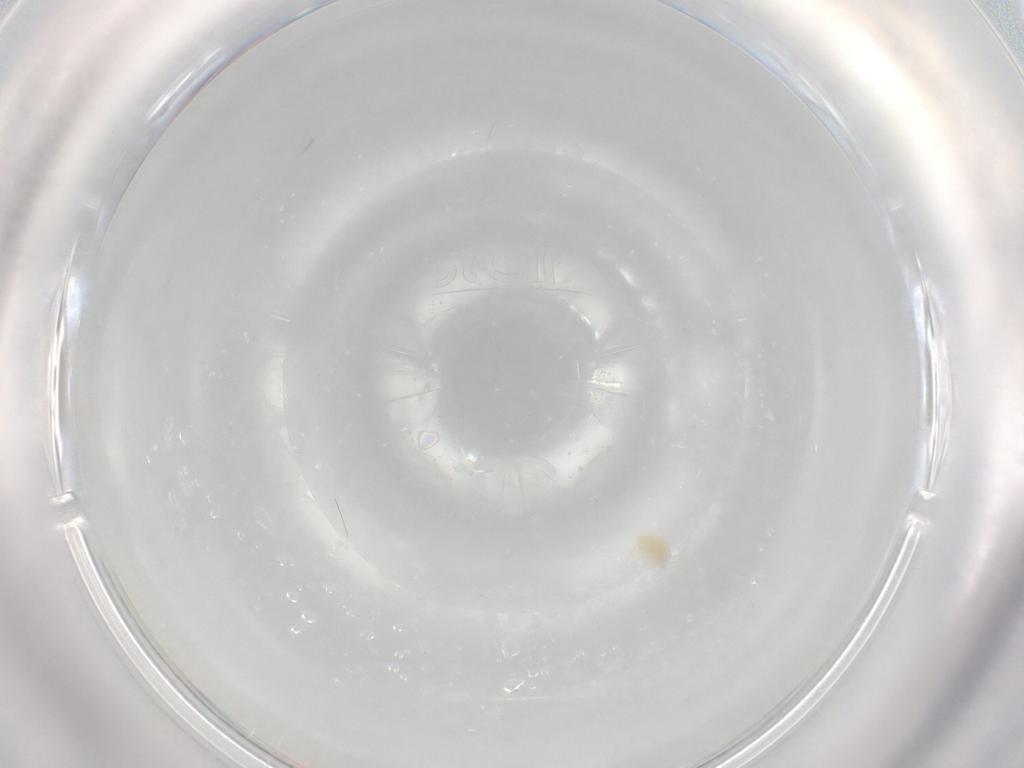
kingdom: Animalia
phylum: Arthropoda
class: Arachnida
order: Trombidiformes
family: Eupodidae
